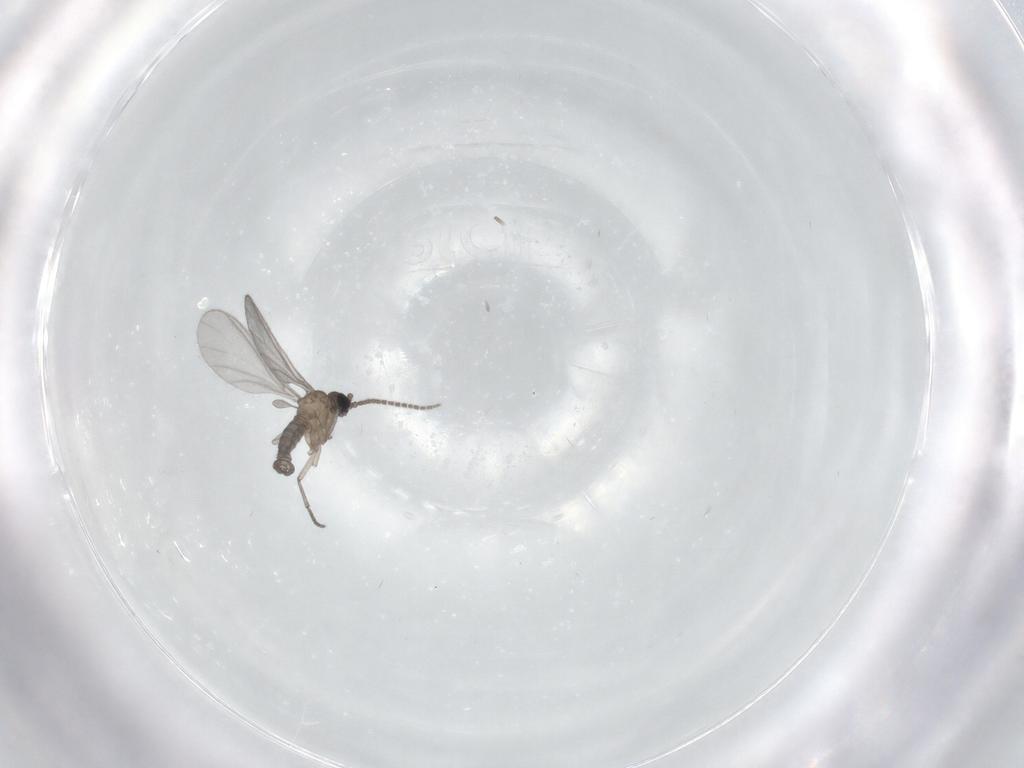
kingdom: Animalia
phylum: Arthropoda
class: Insecta
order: Diptera
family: Sciaridae
